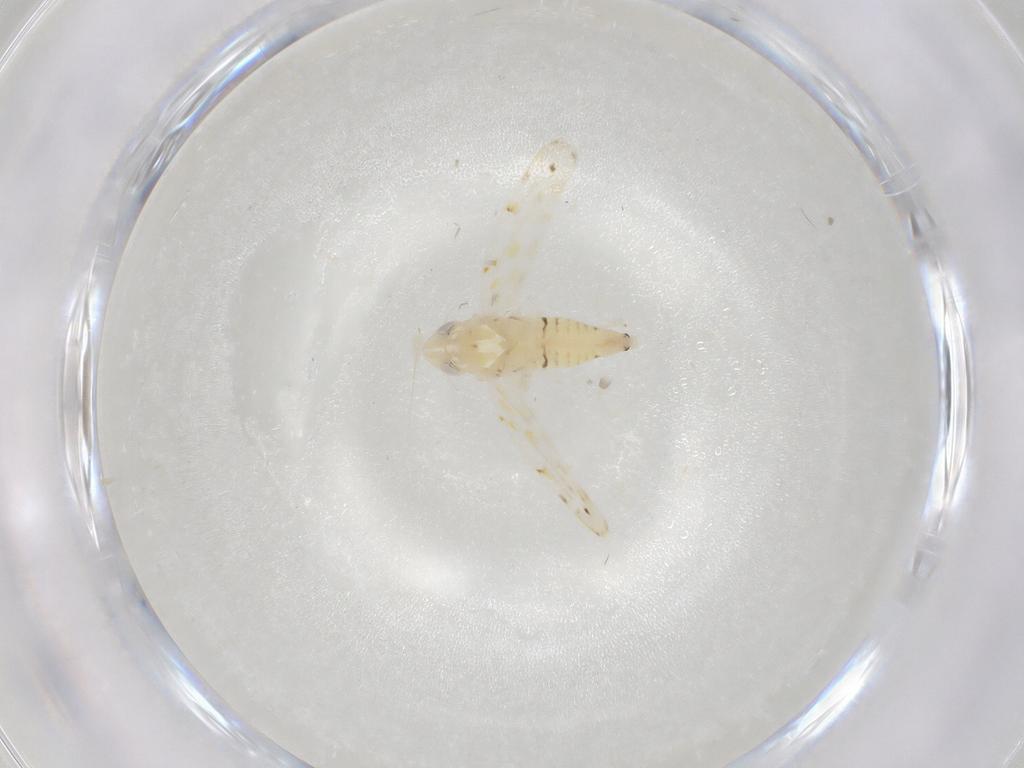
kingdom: Animalia
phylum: Arthropoda
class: Insecta
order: Hemiptera
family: Cicadellidae
